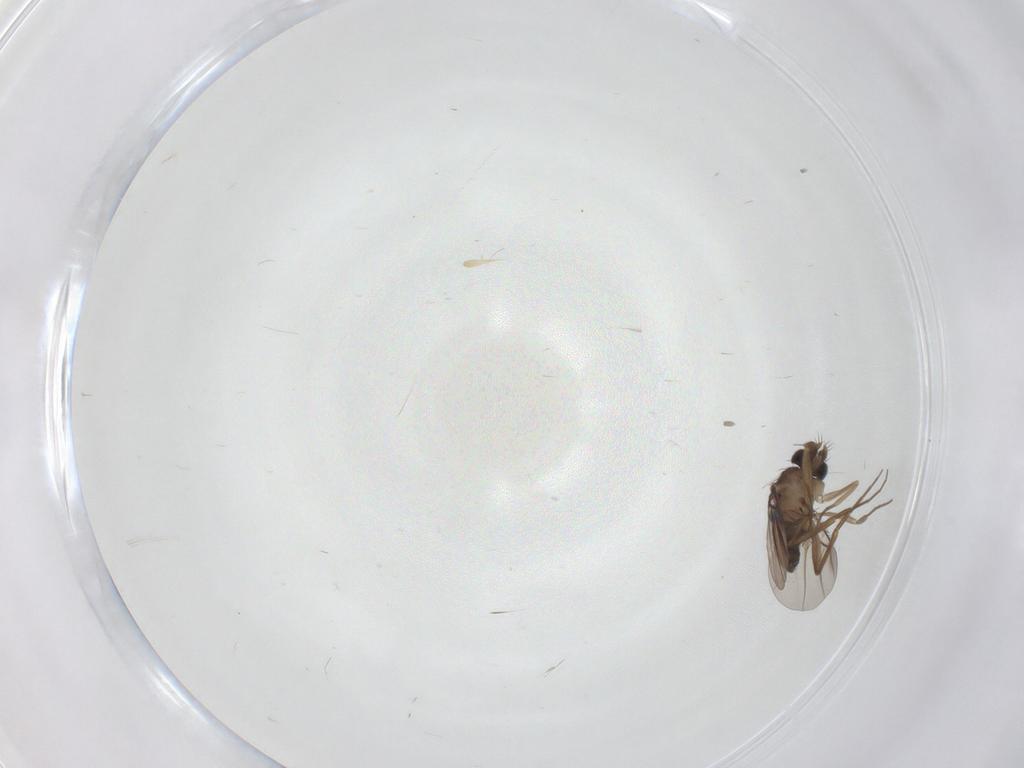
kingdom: Animalia
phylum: Arthropoda
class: Insecta
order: Diptera
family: Phoridae
